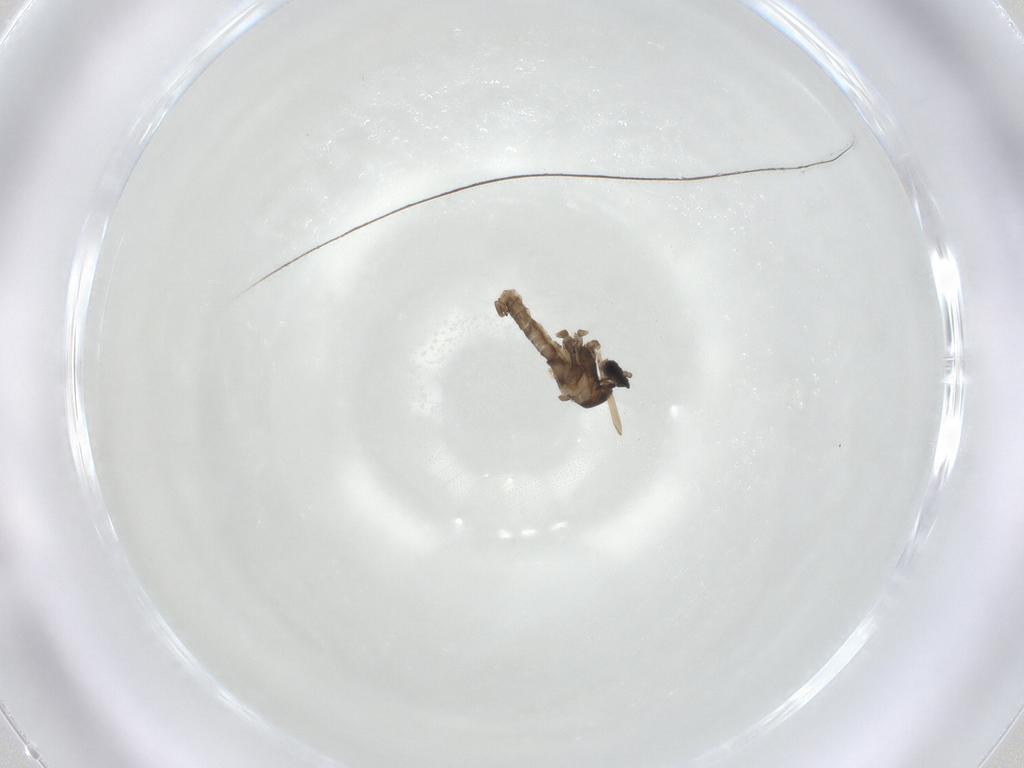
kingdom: Animalia
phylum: Arthropoda
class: Insecta
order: Diptera
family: Cecidomyiidae
